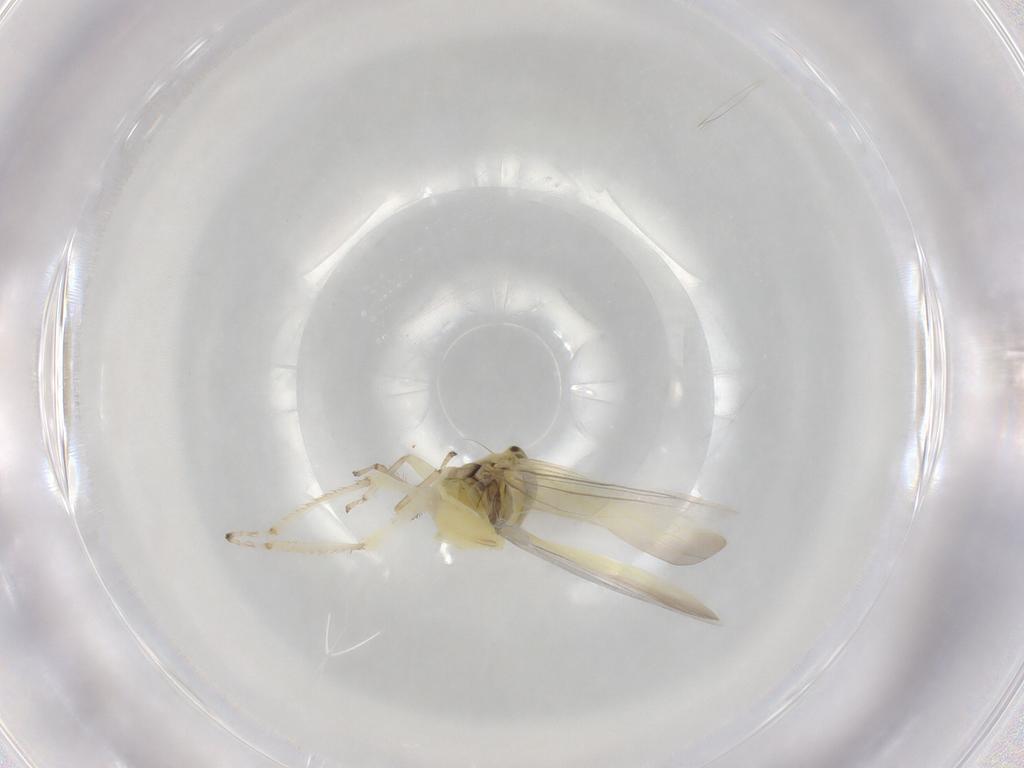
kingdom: Animalia
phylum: Arthropoda
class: Insecta
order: Hemiptera
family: Cicadellidae
